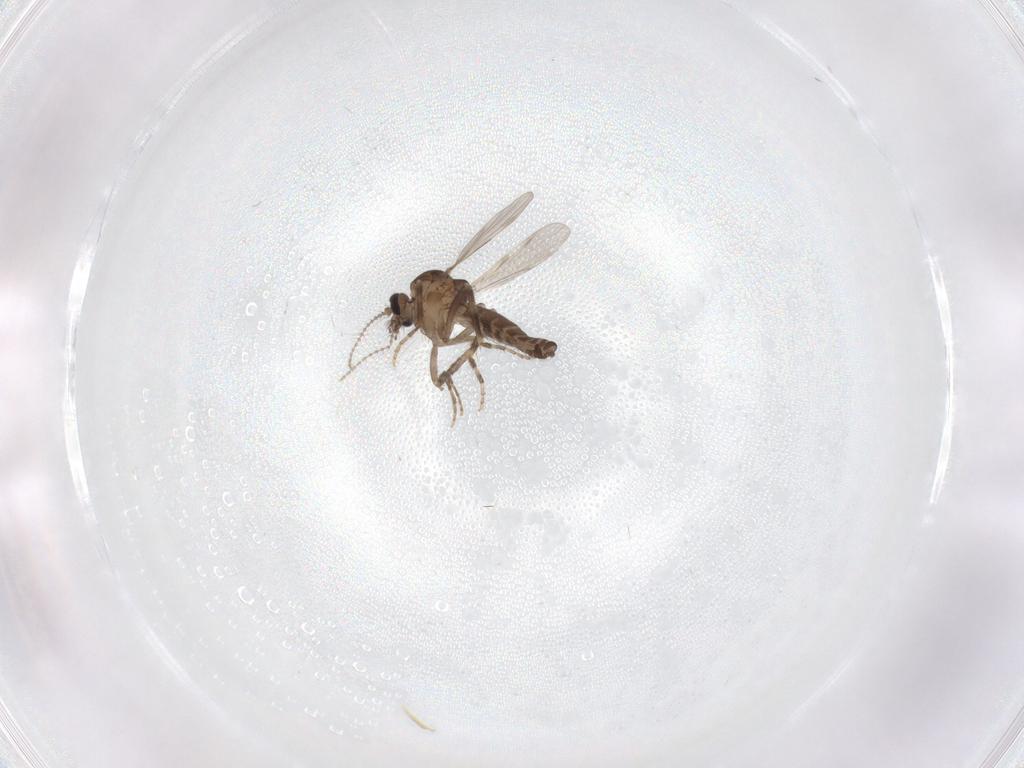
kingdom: Animalia
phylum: Arthropoda
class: Insecta
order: Diptera
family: Ceratopogonidae
